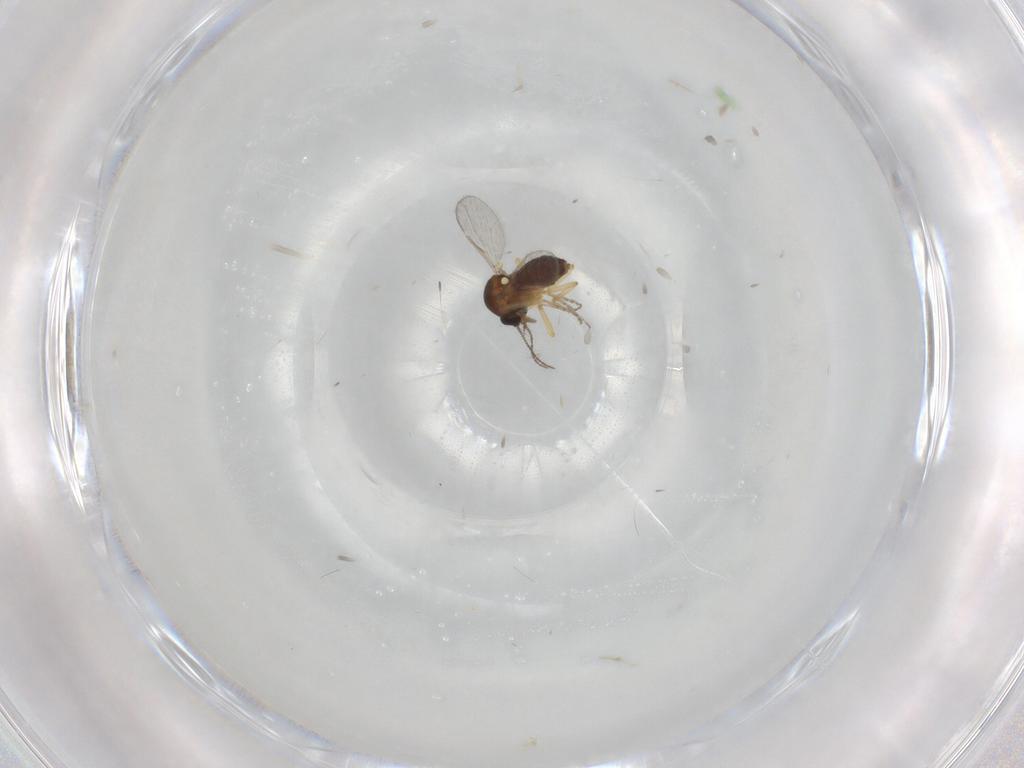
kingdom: Animalia
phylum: Arthropoda
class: Insecta
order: Diptera
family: Ceratopogonidae
